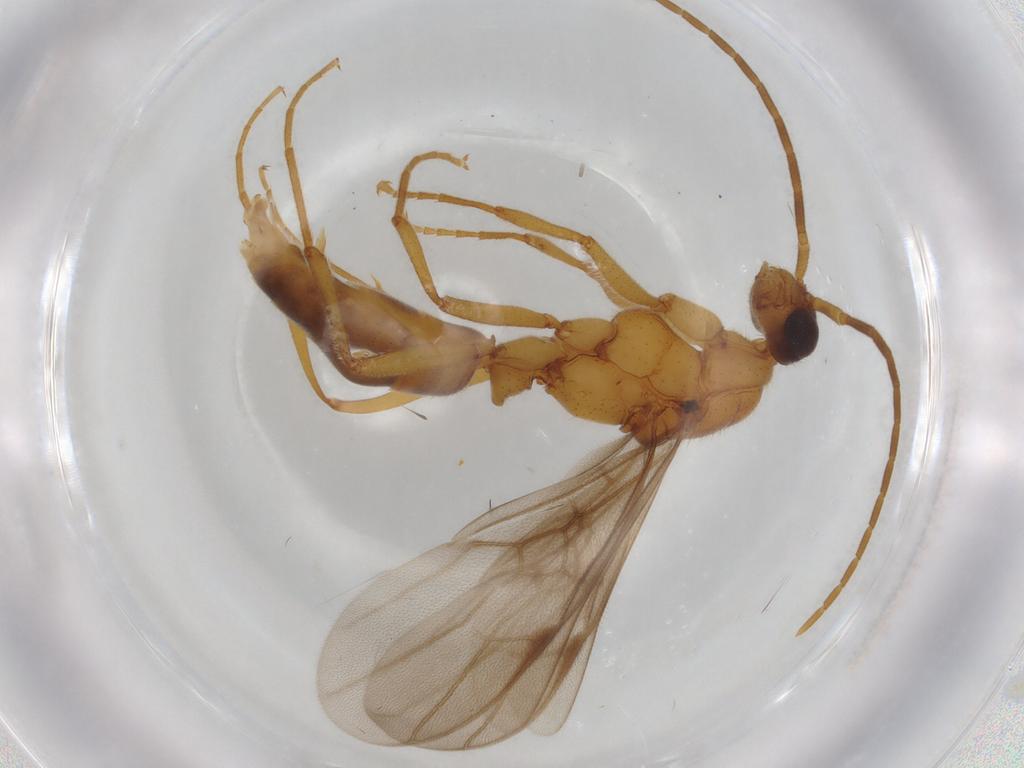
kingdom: Animalia
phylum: Arthropoda
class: Insecta
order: Hymenoptera
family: Formicidae
